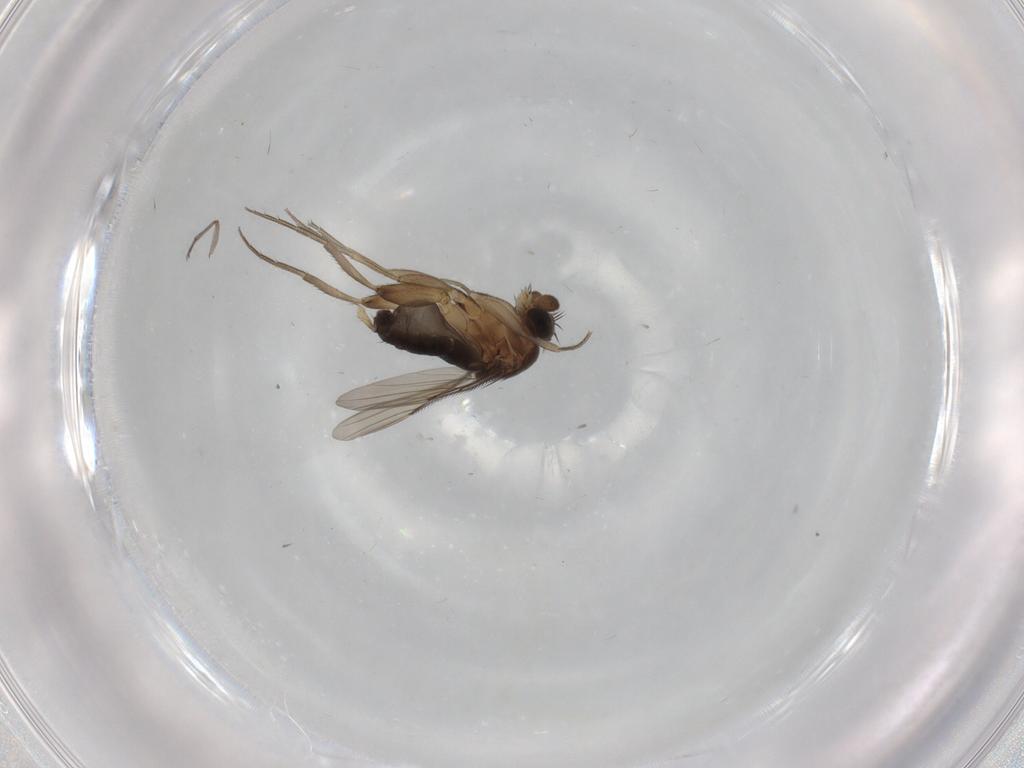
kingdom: Animalia
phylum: Arthropoda
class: Insecta
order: Diptera
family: Sciaridae
